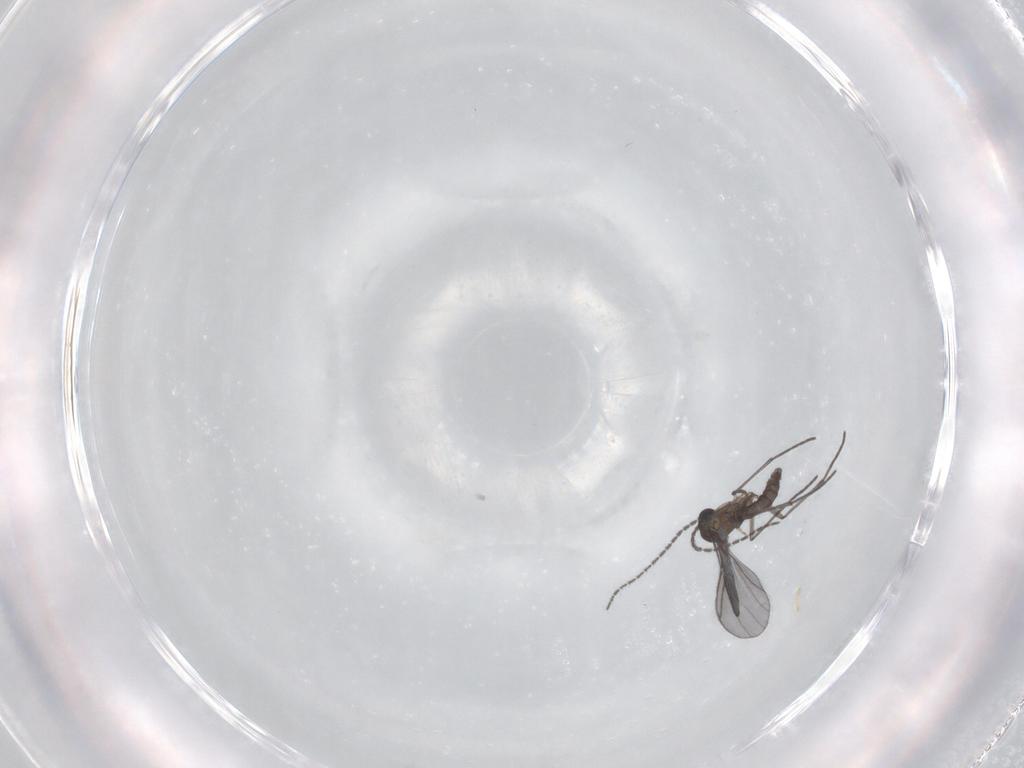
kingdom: Animalia
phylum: Arthropoda
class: Insecta
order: Diptera
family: Sciaridae
